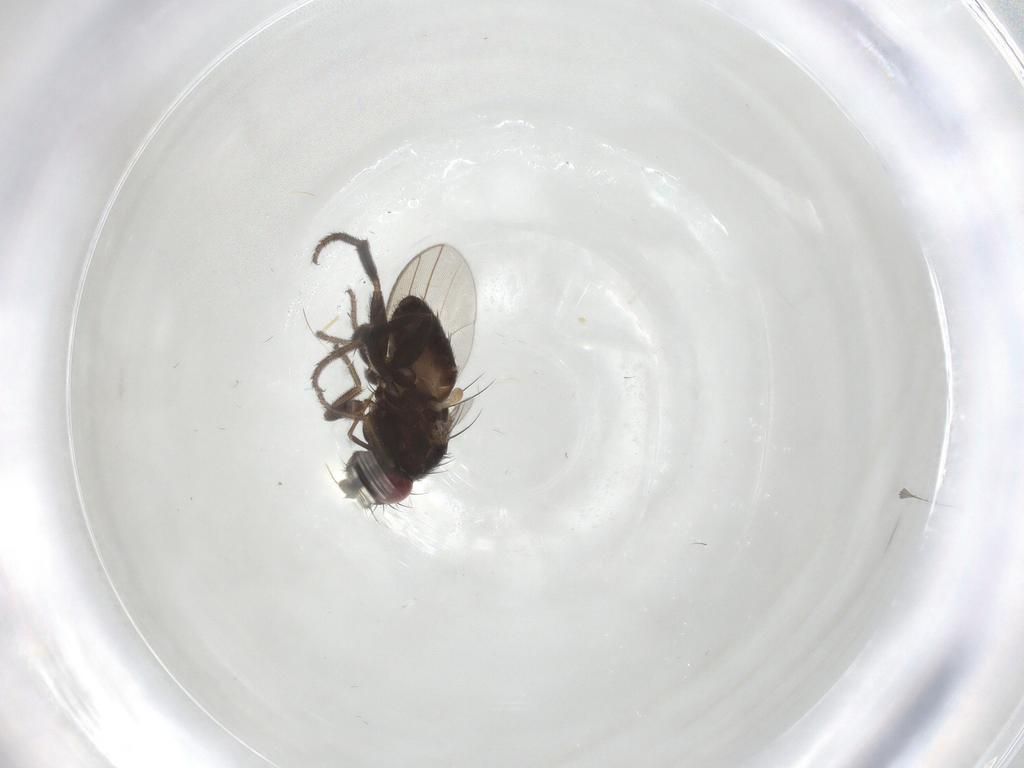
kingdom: Animalia
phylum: Arthropoda
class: Insecta
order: Diptera
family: Milichiidae
